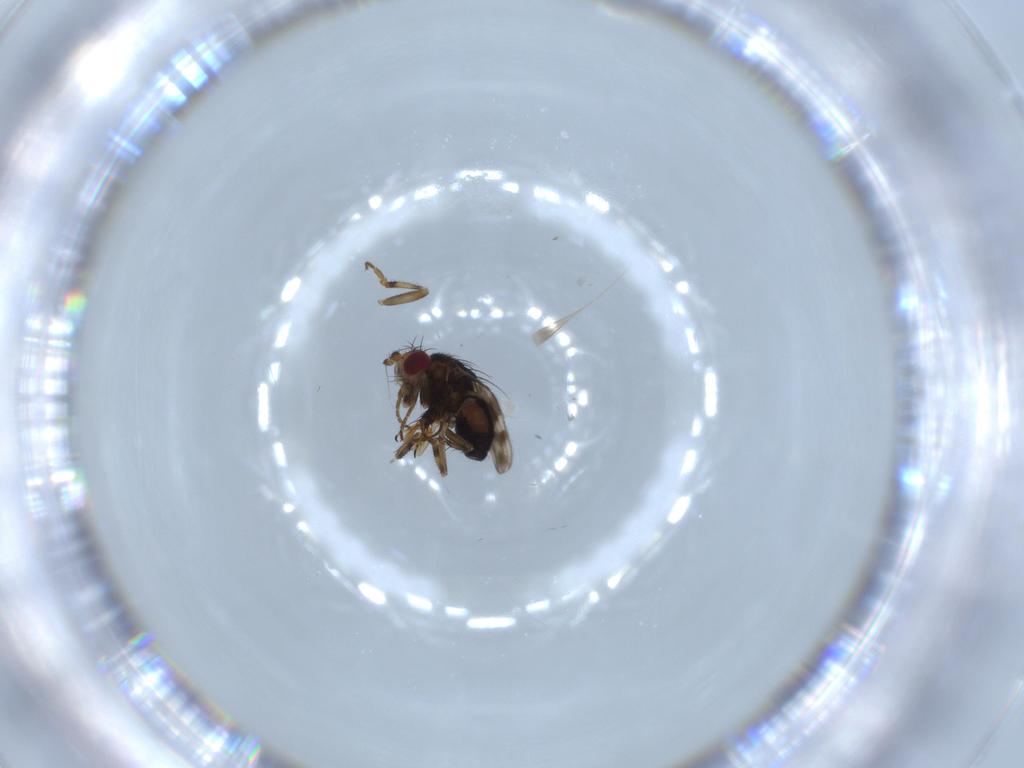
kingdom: Animalia
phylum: Arthropoda
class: Insecta
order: Diptera
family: Sphaeroceridae
